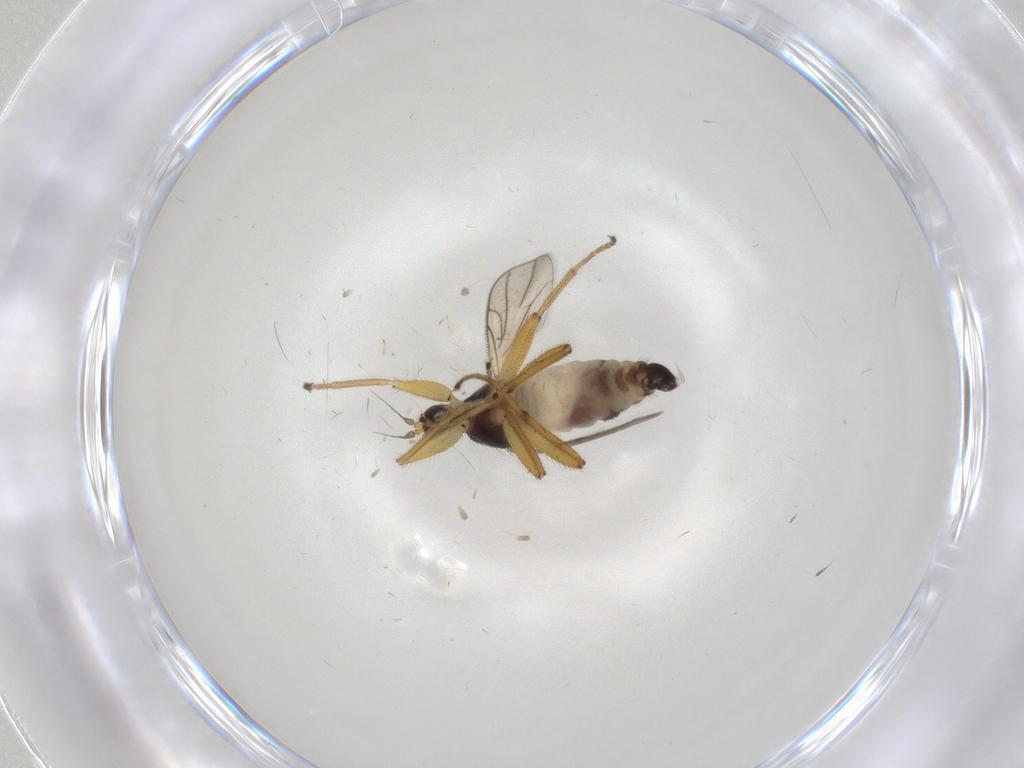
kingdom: Animalia
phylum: Arthropoda
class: Insecta
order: Diptera
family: Hybotidae
